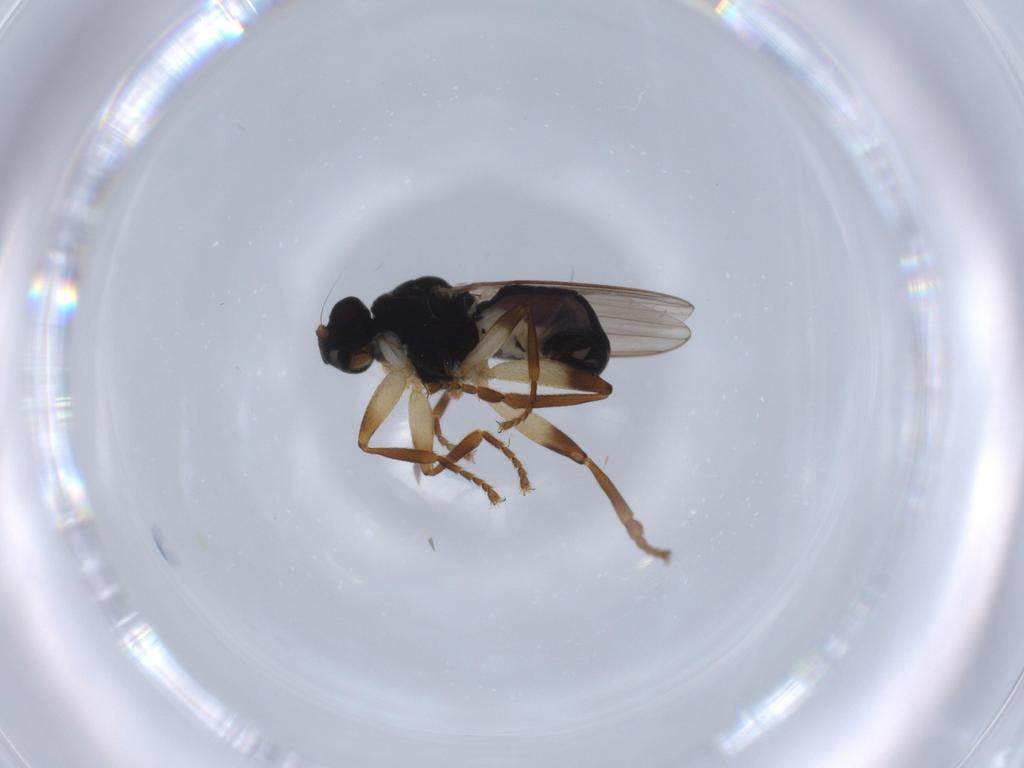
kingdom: Animalia
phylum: Arthropoda
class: Insecta
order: Diptera
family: Sphaeroceridae
